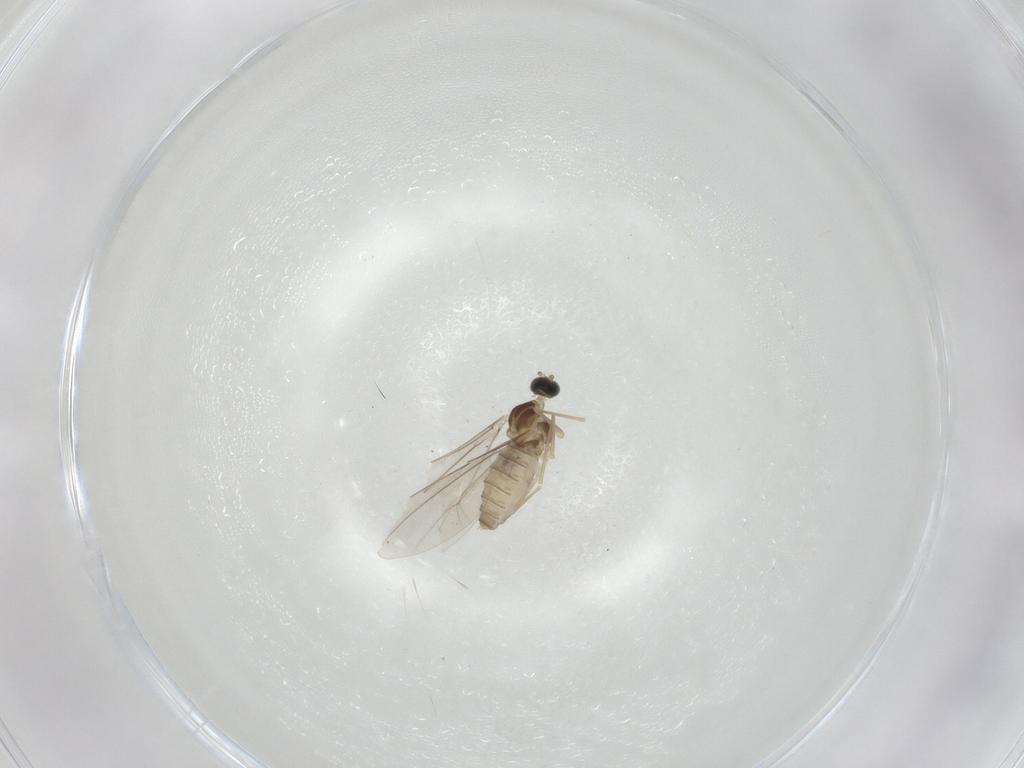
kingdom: Animalia
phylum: Arthropoda
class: Insecta
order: Diptera
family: Cecidomyiidae
